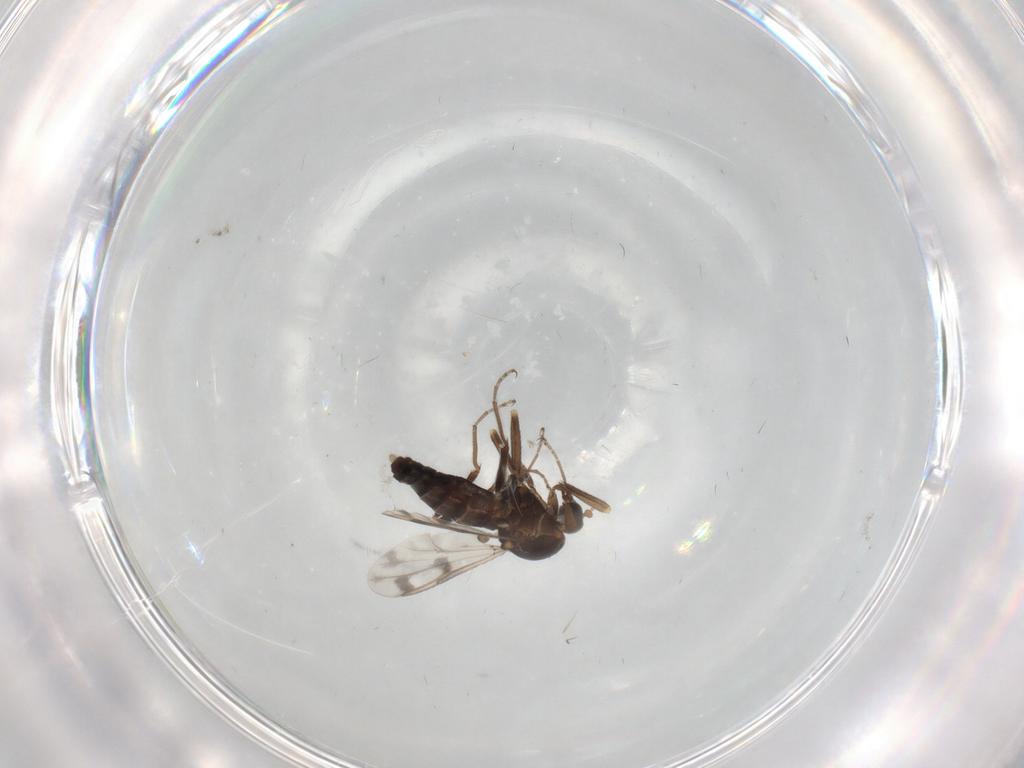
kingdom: Animalia
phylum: Arthropoda
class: Insecta
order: Diptera
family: Ceratopogonidae
